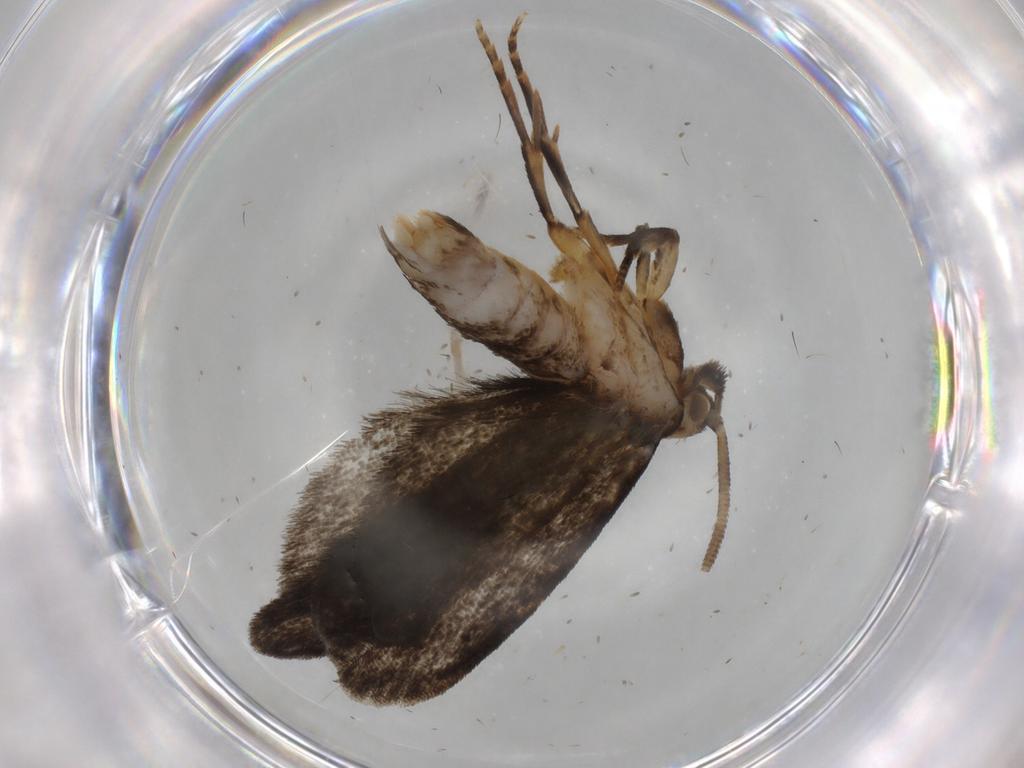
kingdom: Animalia
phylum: Arthropoda
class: Insecta
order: Lepidoptera
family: Dryadaulidae
